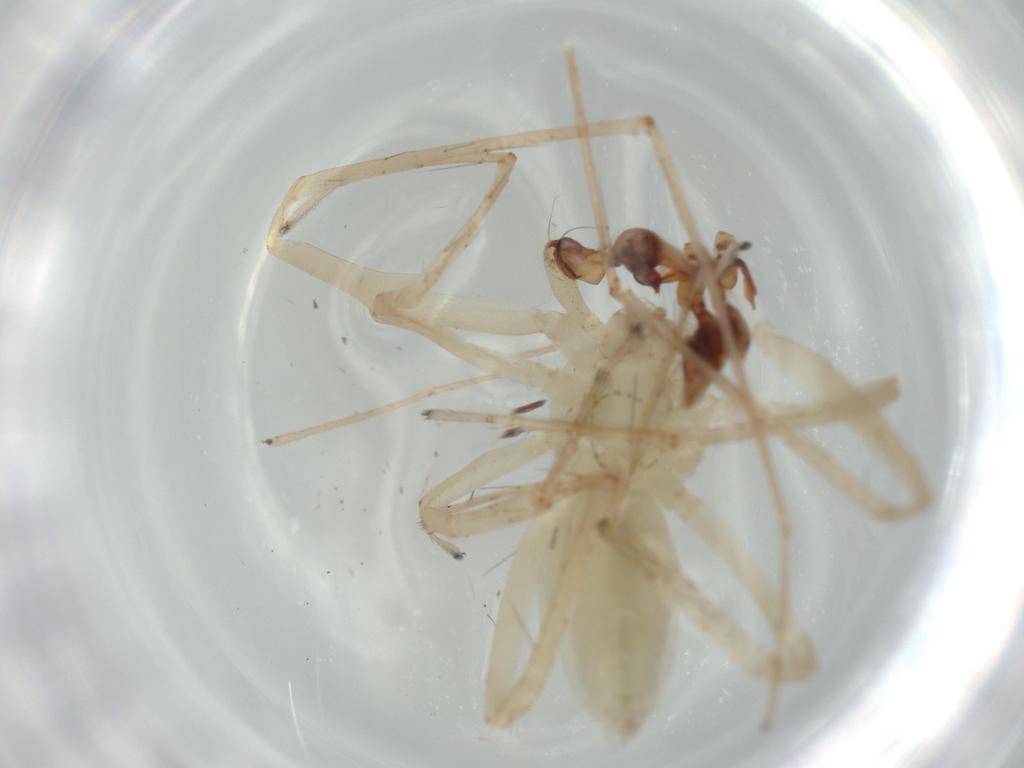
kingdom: Animalia
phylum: Arthropoda
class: Arachnida
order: Araneae
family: Anyphaenidae
